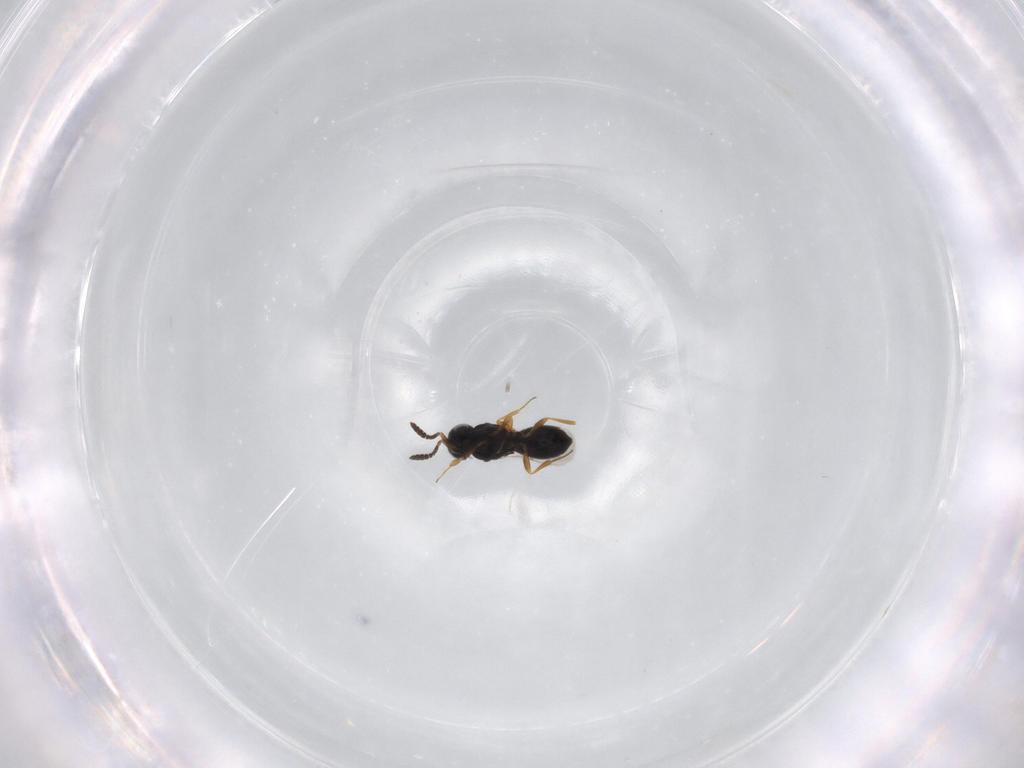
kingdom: Animalia
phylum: Arthropoda
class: Insecta
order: Hymenoptera
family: Scelionidae
